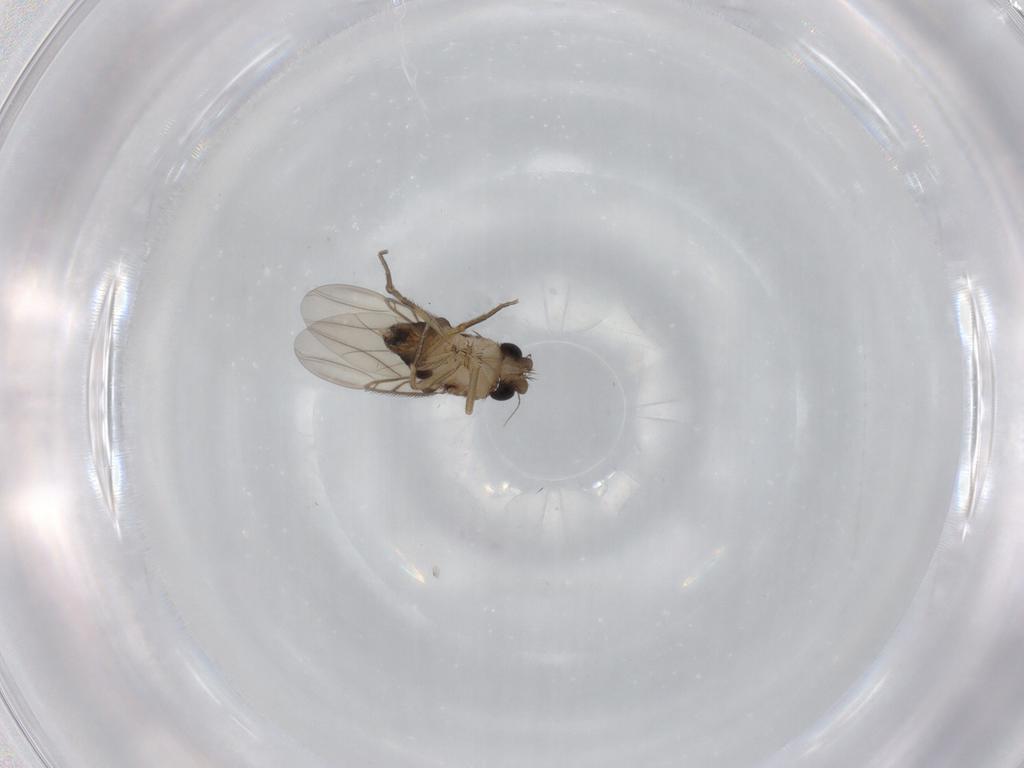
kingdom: Animalia
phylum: Arthropoda
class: Insecta
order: Diptera
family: Phoridae
